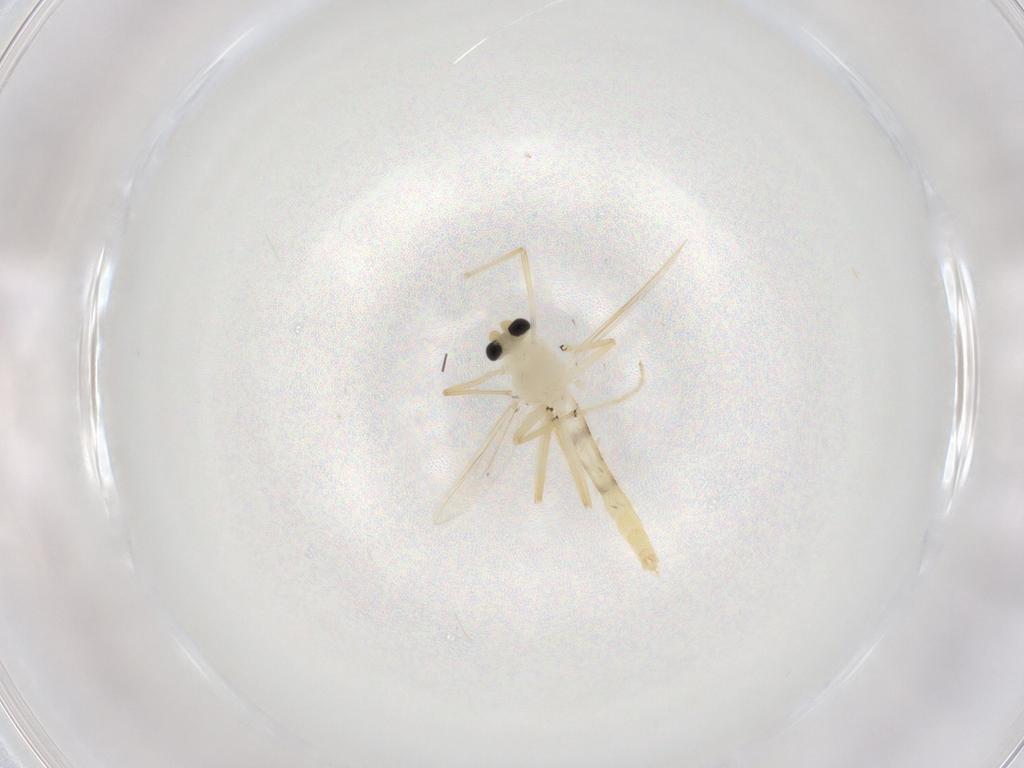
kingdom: Animalia
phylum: Arthropoda
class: Insecta
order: Diptera
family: Chironomidae
